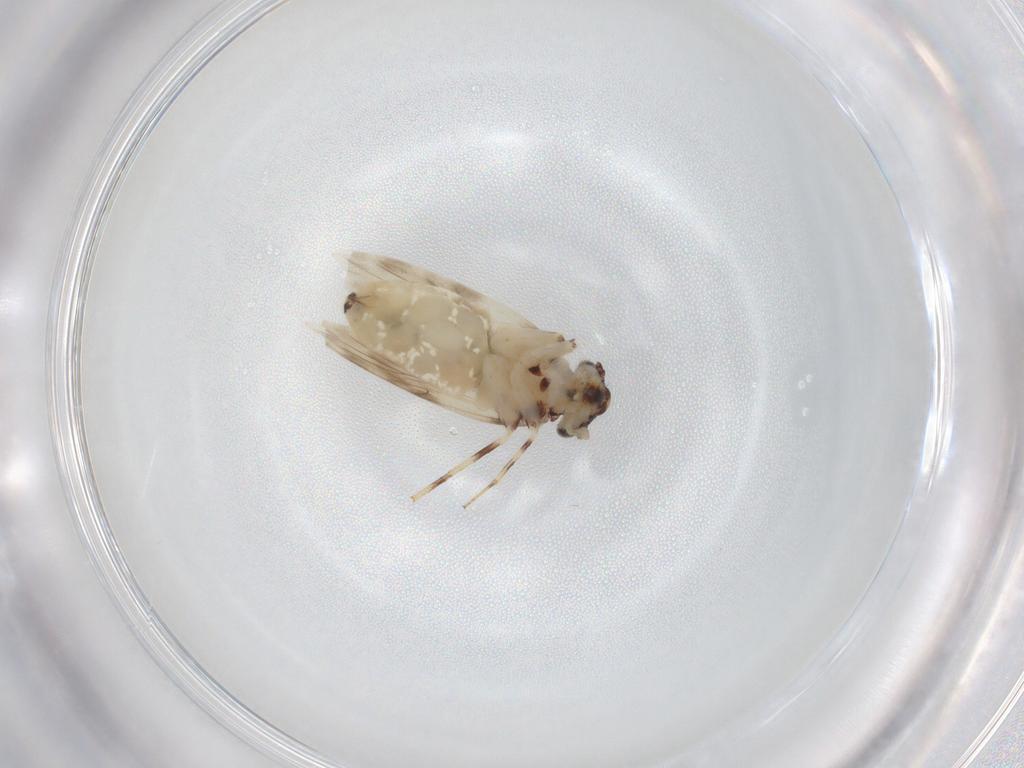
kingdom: Animalia
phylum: Arthropoda
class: Insecta
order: Psocodea
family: Lepidopsocidae
